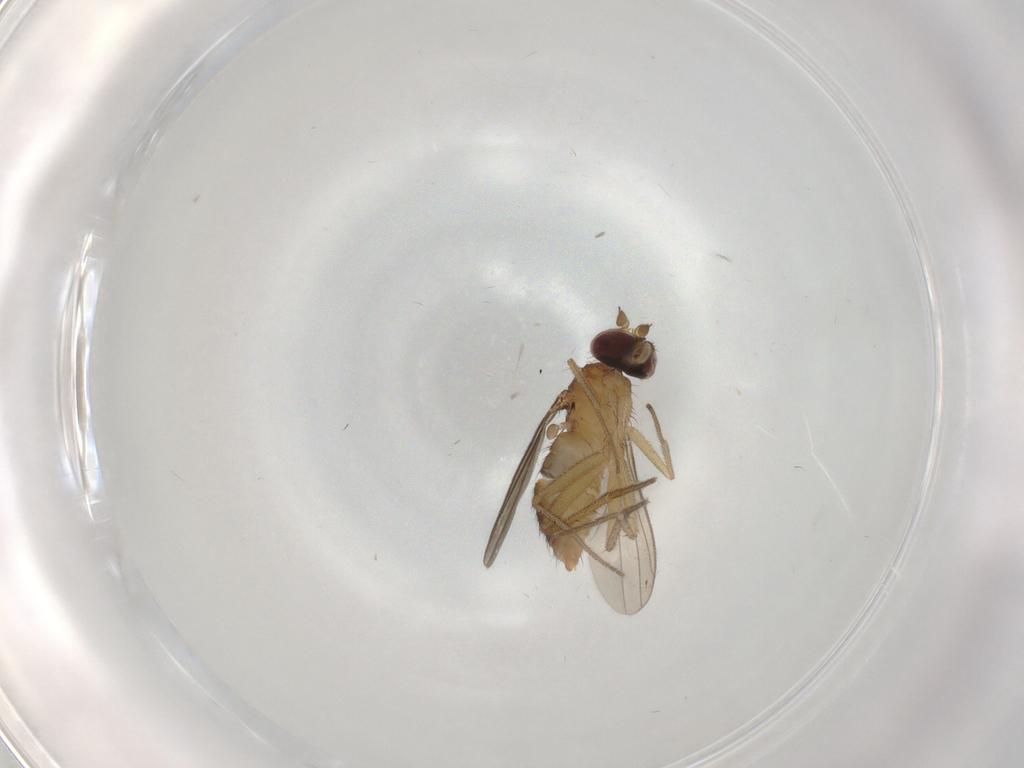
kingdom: Animalia
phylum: Arthropoda
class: Insecta
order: Diptera
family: Dolichopodidae
